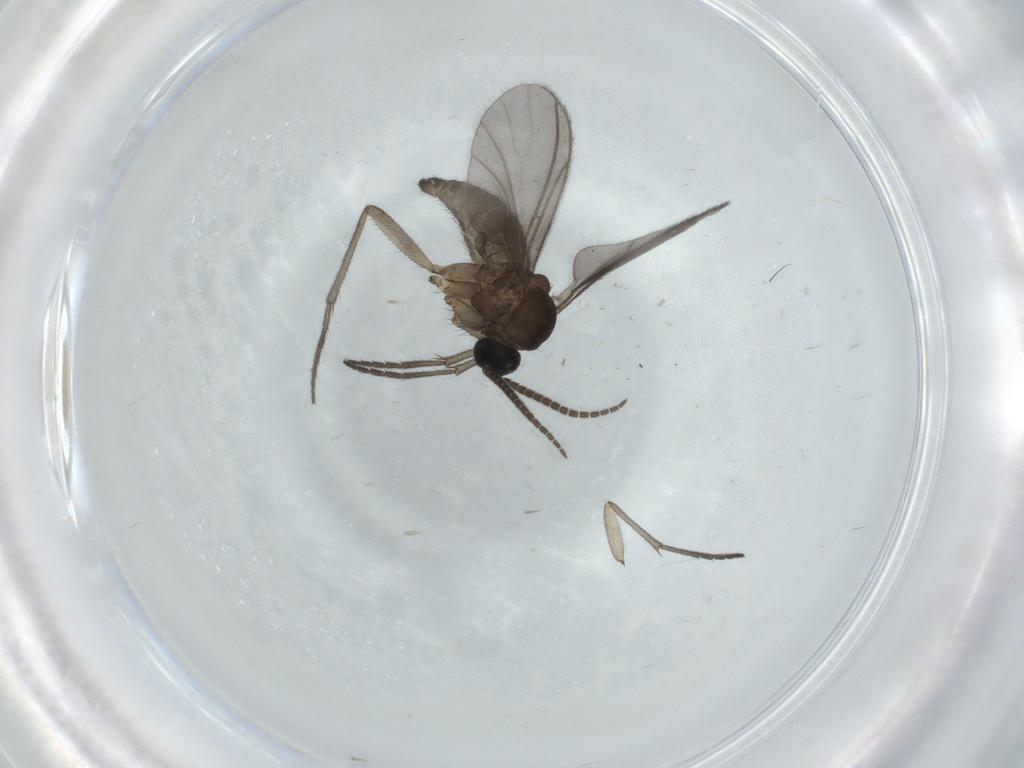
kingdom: Animalia
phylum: Arthropoda
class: Insecta
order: Diptera
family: Sciaridae
